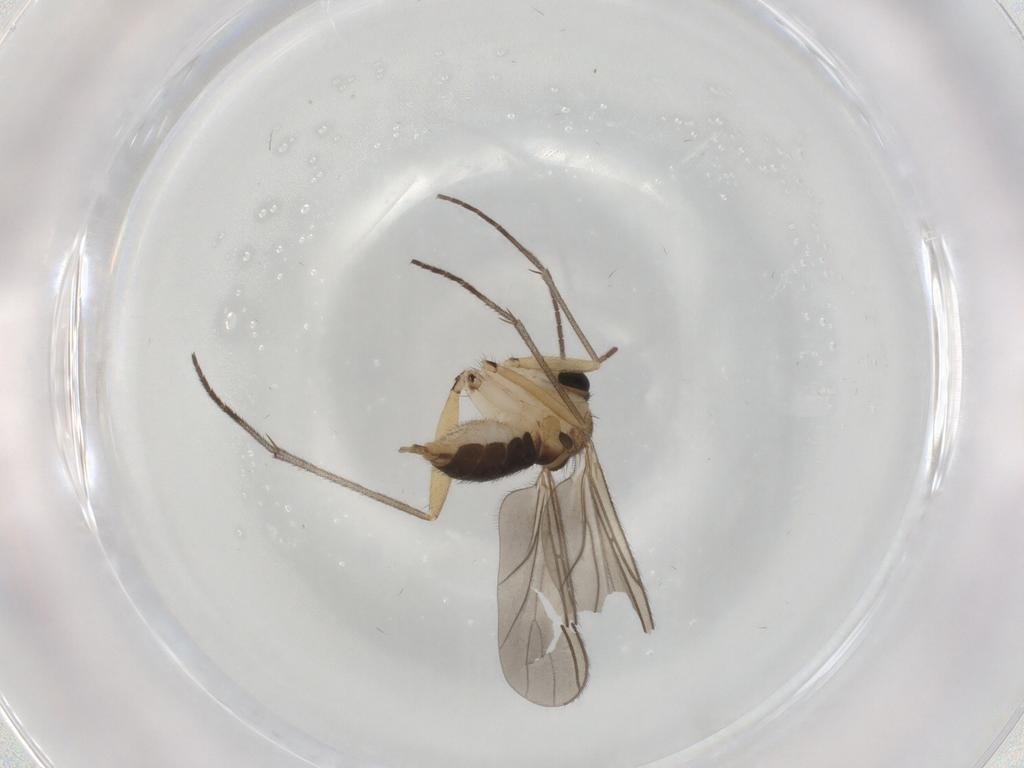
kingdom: Animalia
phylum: Arthropoda
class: Insecta
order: Diptera
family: Sciaridae
